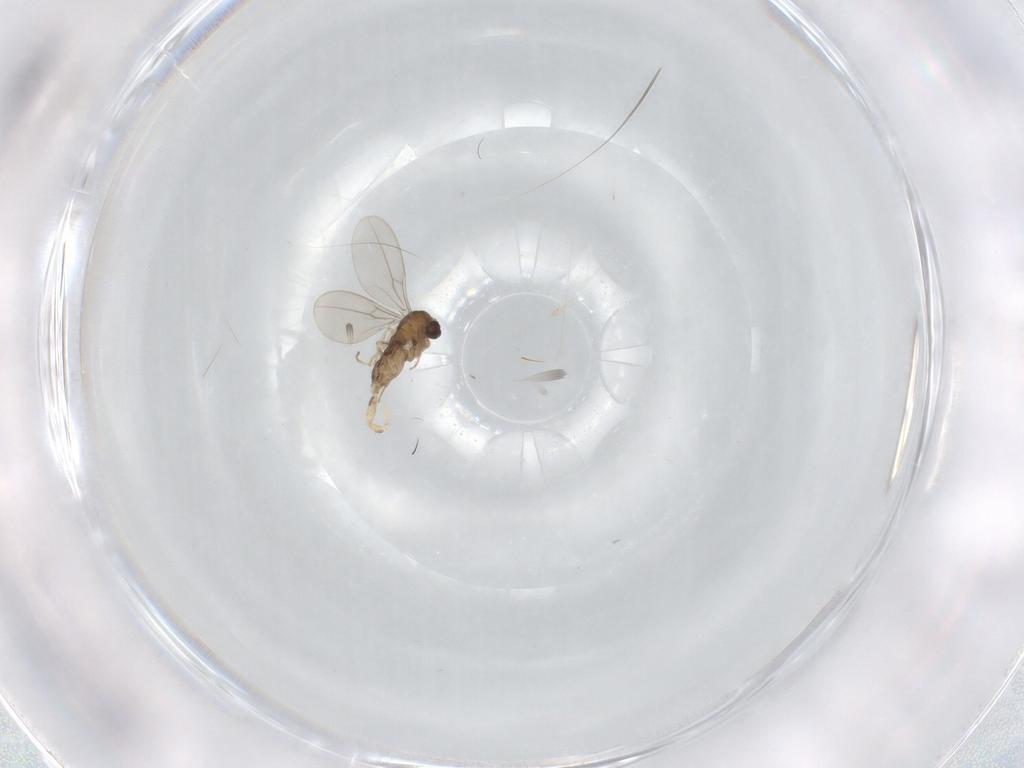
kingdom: Animalia
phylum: Arthropoda
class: Insecta
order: Diptera
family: Cecidomyiidae
